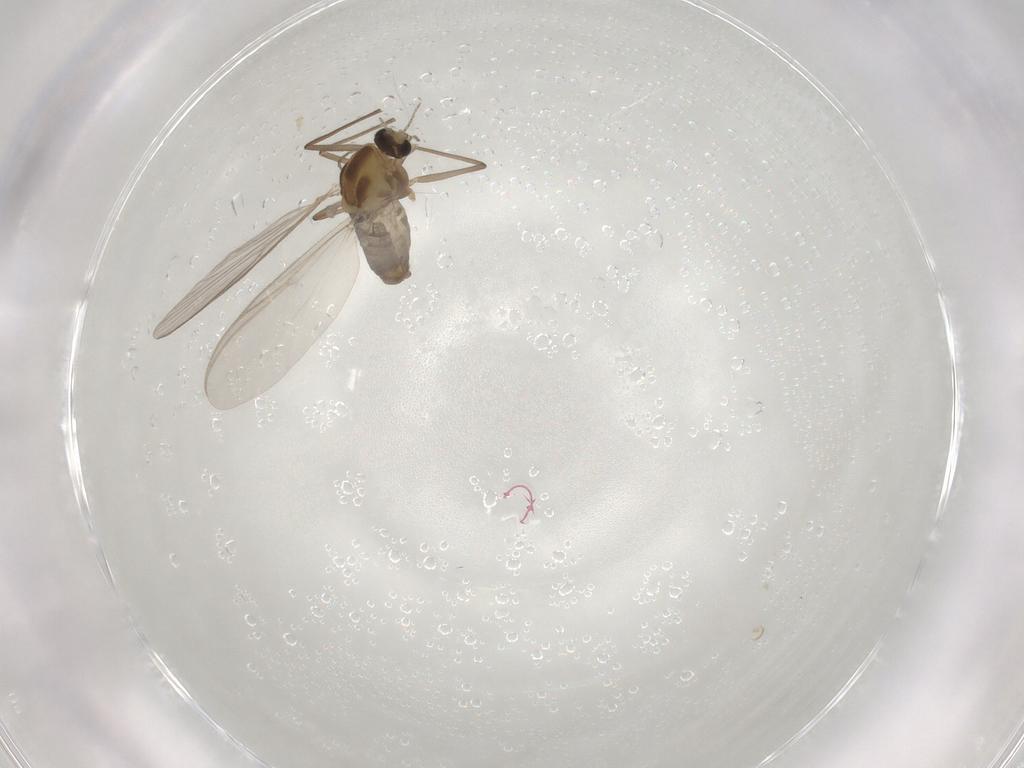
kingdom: Animalia
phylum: Arthropoda
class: Insecta
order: Diptera
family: Chironomidae
